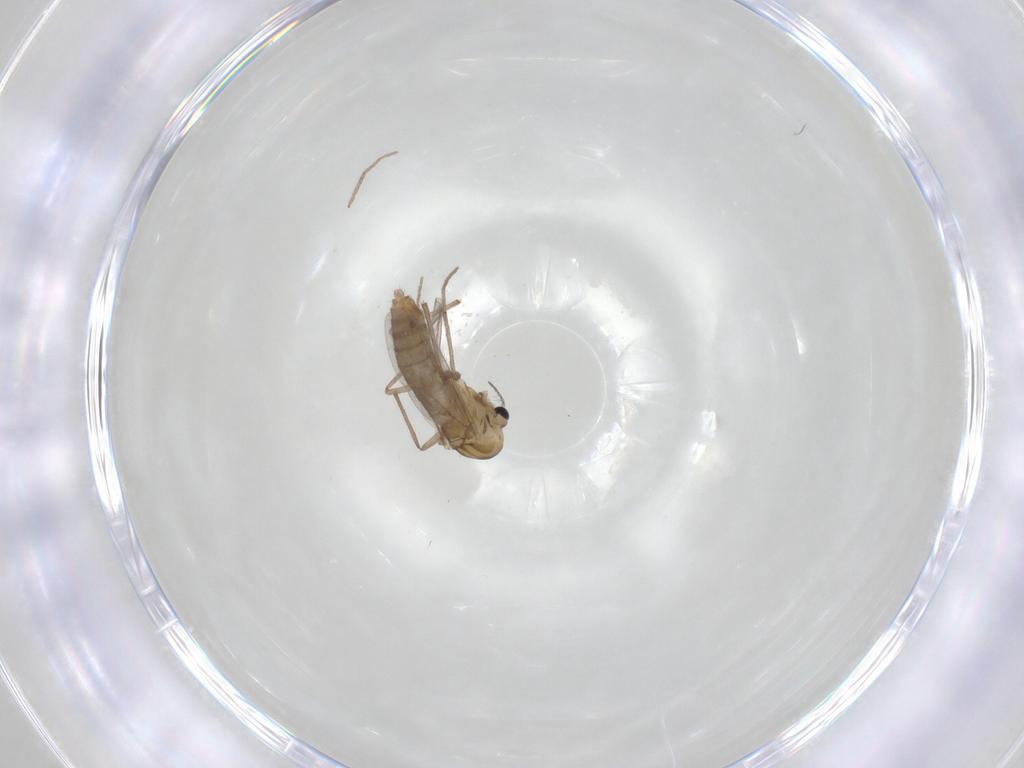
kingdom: Animalia
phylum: Arthropoda
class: Insecta
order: Diptera
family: Chironomidae
